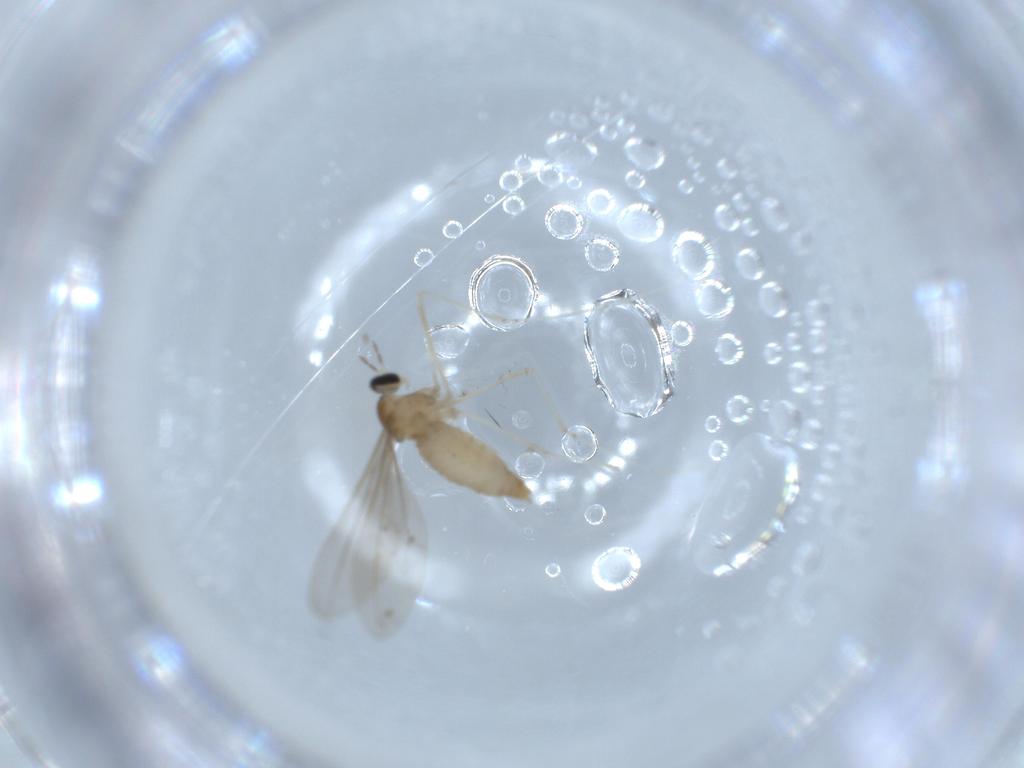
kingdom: Animalia
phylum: Arthropoda
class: Insecta
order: Diptera
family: Cecidomyiidae
